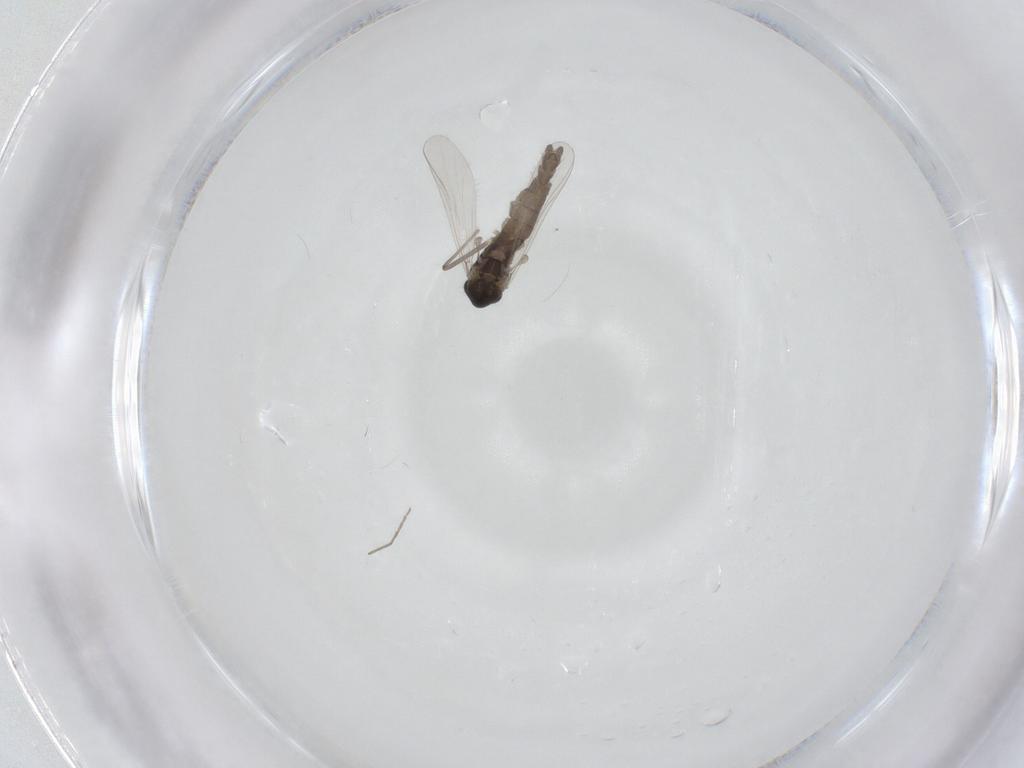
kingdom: Animalia
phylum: Arthropoda
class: Insecta
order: Diptera
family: Chironomidae
